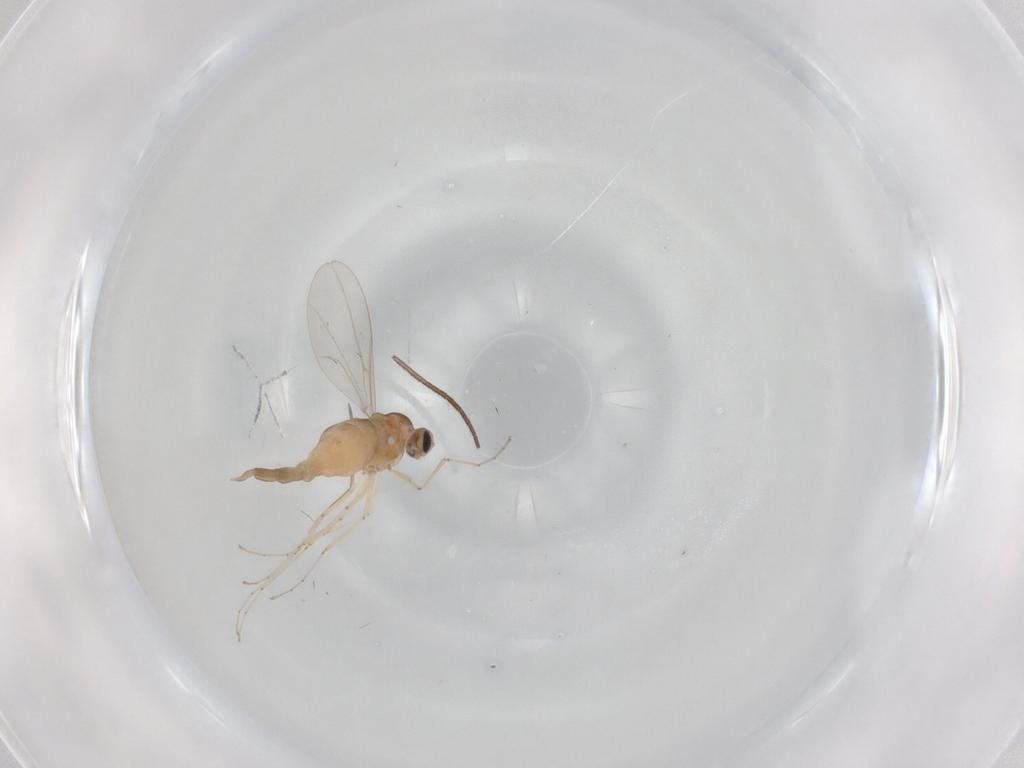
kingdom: Animalia
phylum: Arthropoda
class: Insecta
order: Diptera
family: Cecidomyiidae
